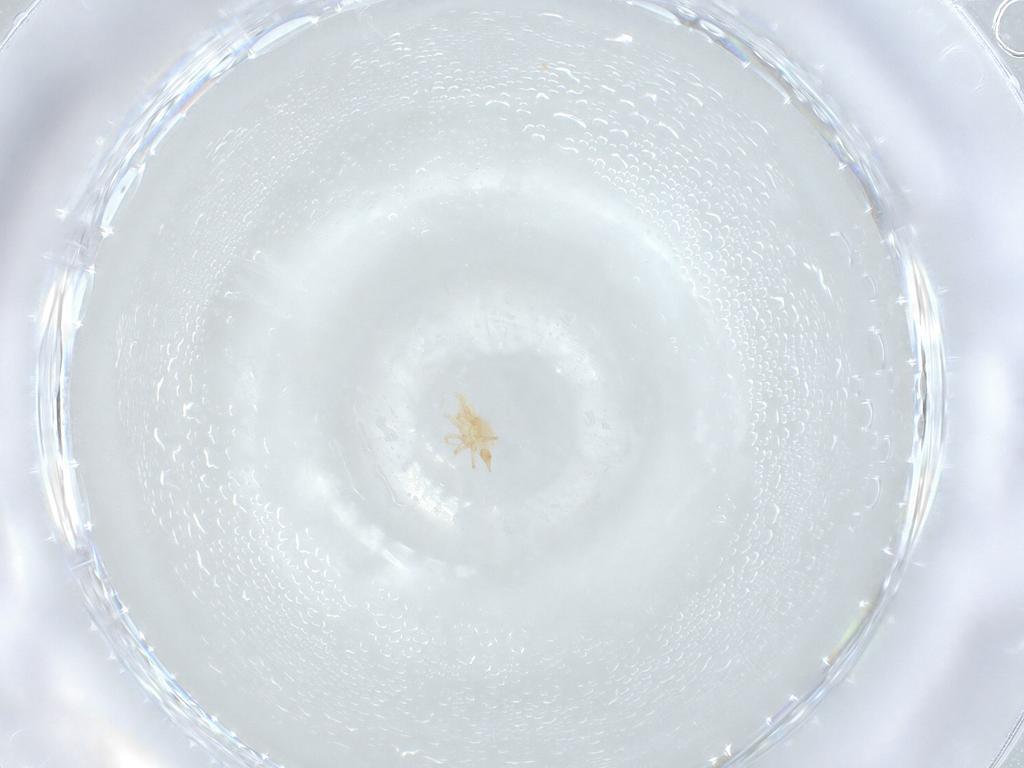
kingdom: Animalia
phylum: Arthropoda
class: Arachnida
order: Trombidiformes
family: Cunaxidae
